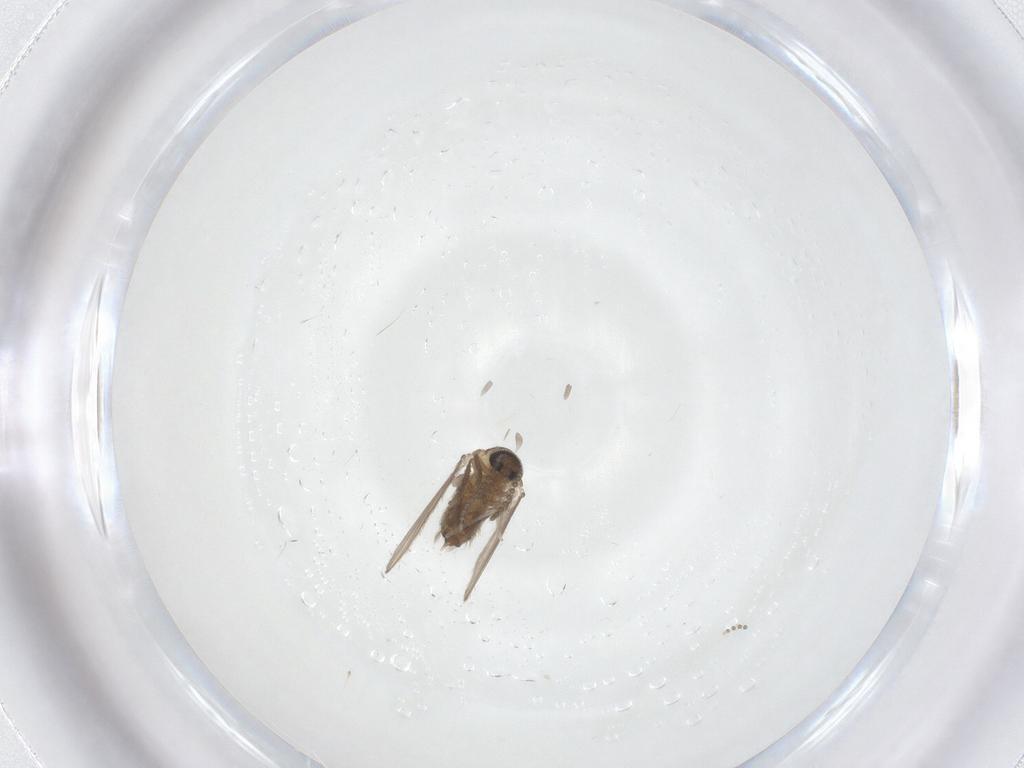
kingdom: Animalia
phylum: Arthropoda
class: Insecta
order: Diptera
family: Psychodidae
